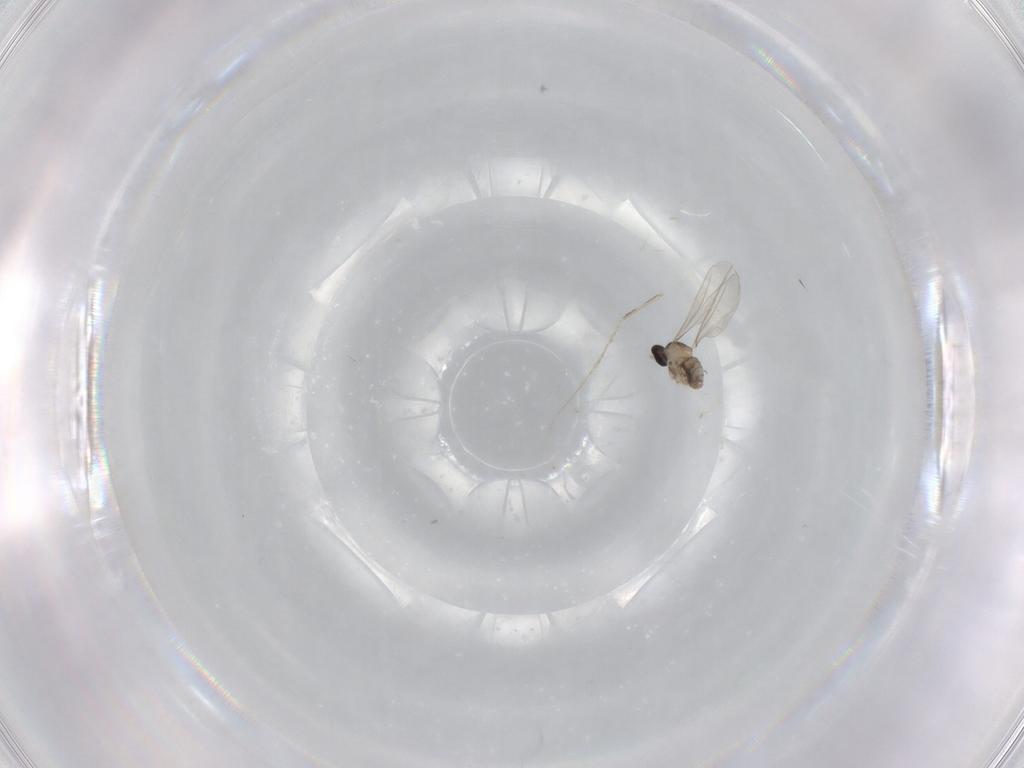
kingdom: Animalia
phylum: Arthropoda
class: Insecta
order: Diptera
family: Cecidomyiidae
